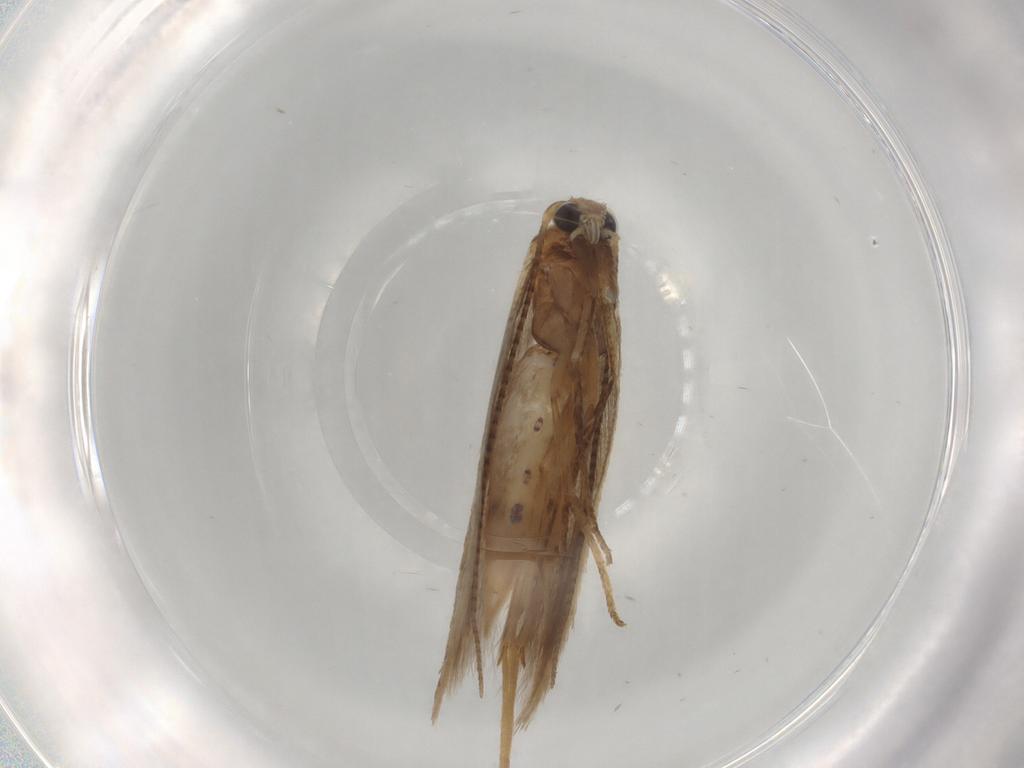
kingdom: Animalia
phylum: Arthropoda
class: Insecta
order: Lepidoptera
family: Bedelliidae
